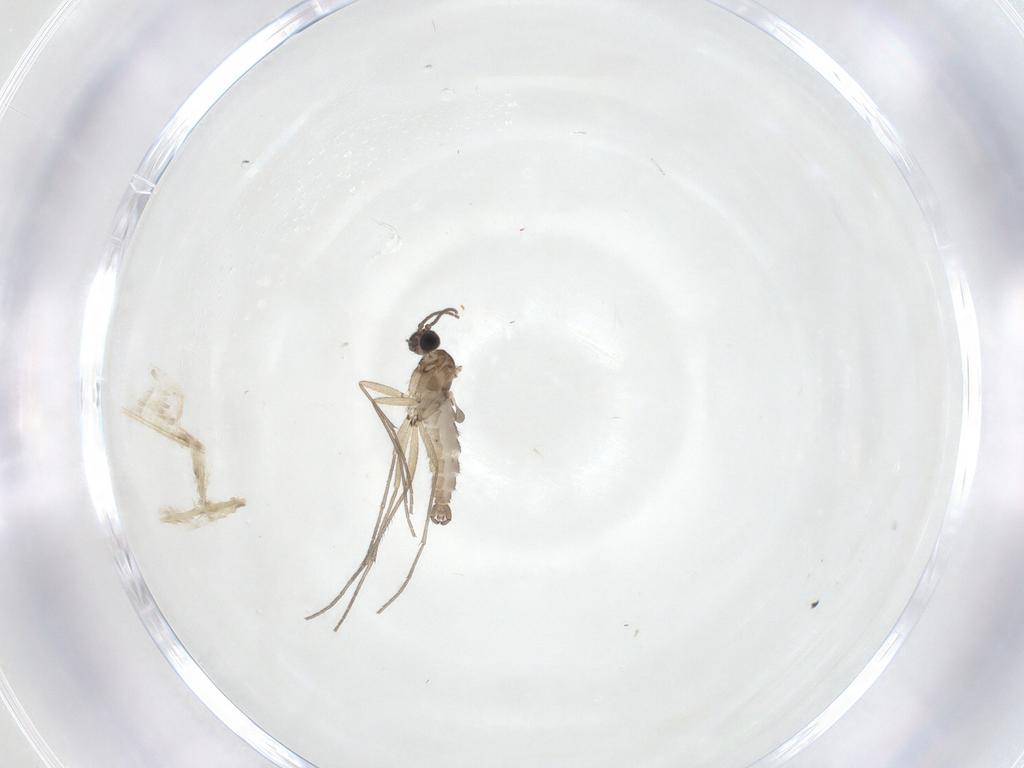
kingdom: Animalia
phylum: Arthropoda
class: Insecta
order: Diptera
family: Sciaridae
